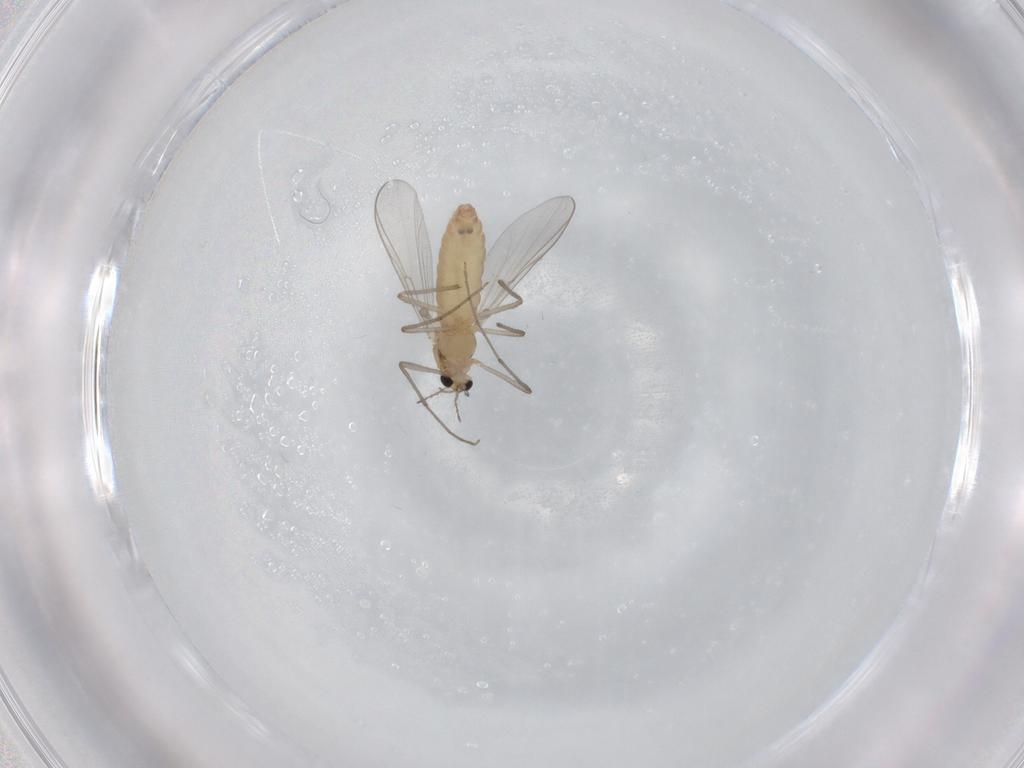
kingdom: Animalia
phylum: Arthropoda
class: Insecta
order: Diptera
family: Chironomidae
